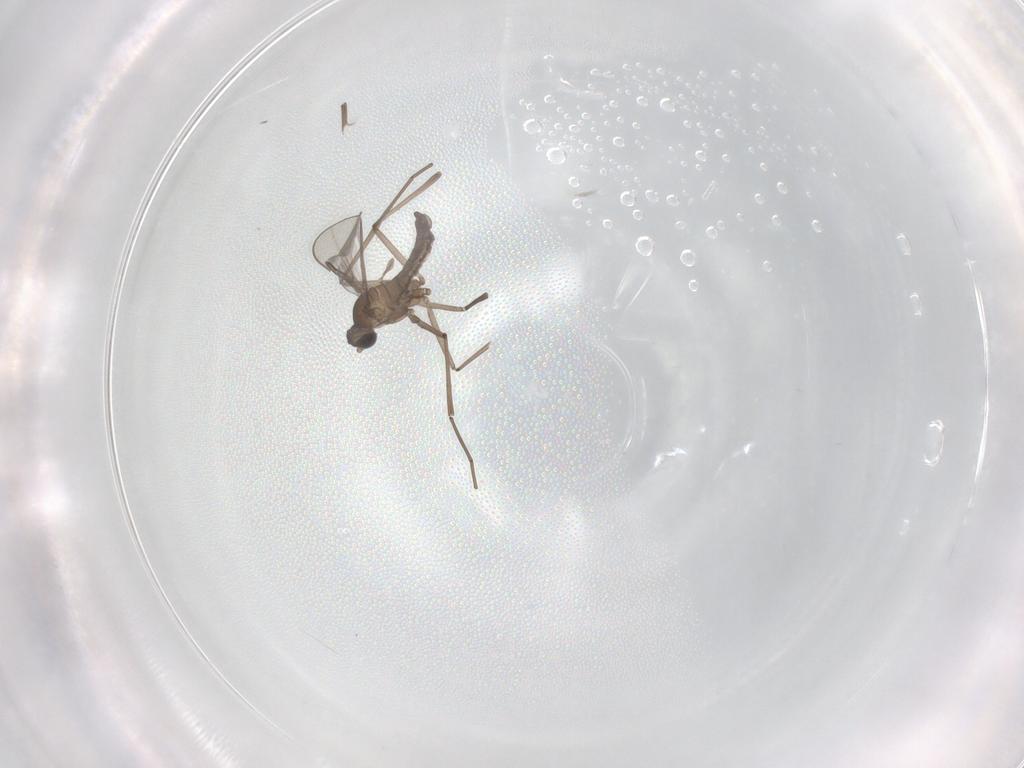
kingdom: Animalia
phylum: Arthropoda
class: Insecta
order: Diptera
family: Cecidomyiidae
